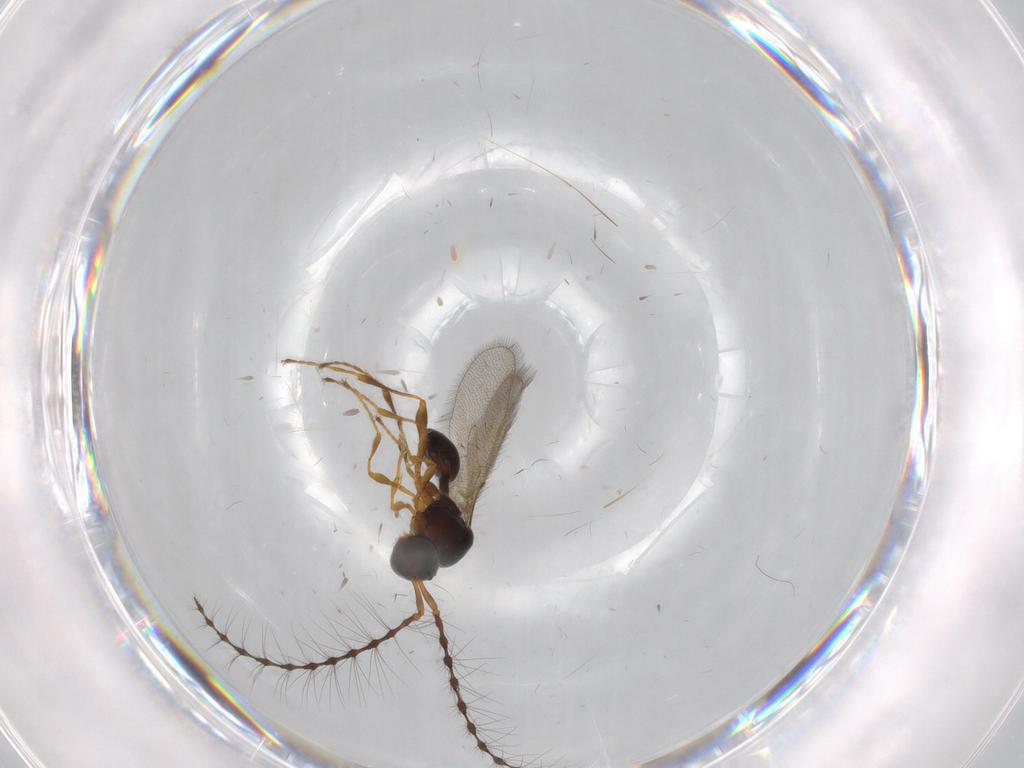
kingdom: Animalia
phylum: Arthropoda
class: Insecta
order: Hymenoptera
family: Diapriidae
